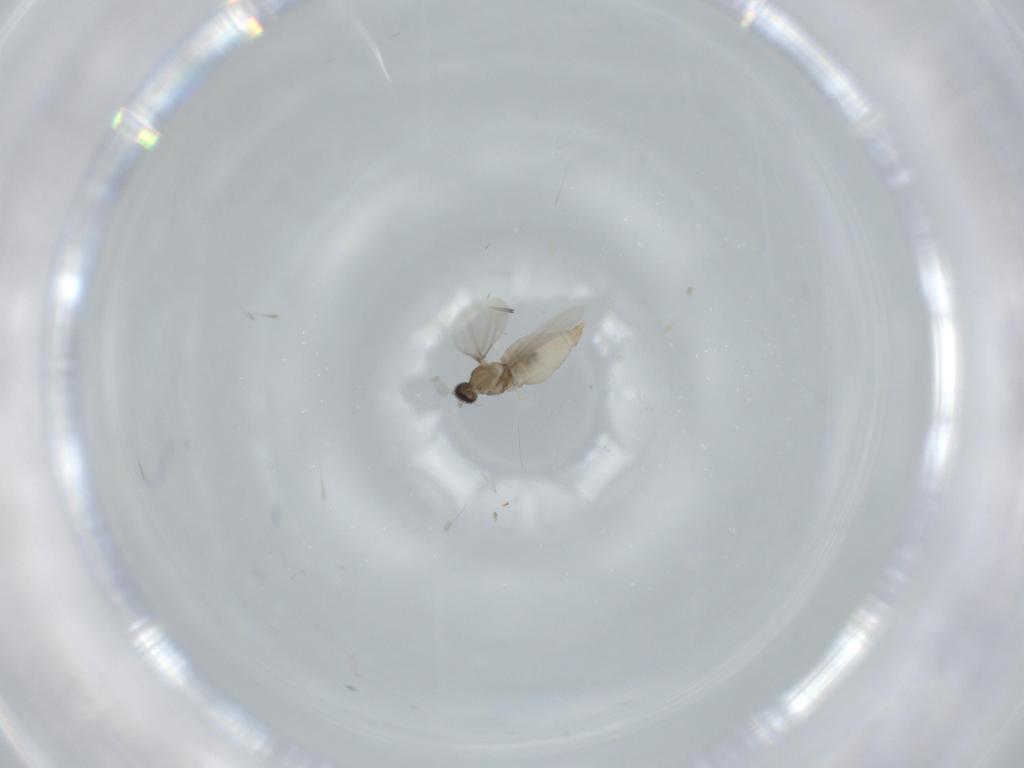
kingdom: Animalia
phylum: Arthropoda
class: Insecta
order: Diptera
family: Cecidomyiidae
